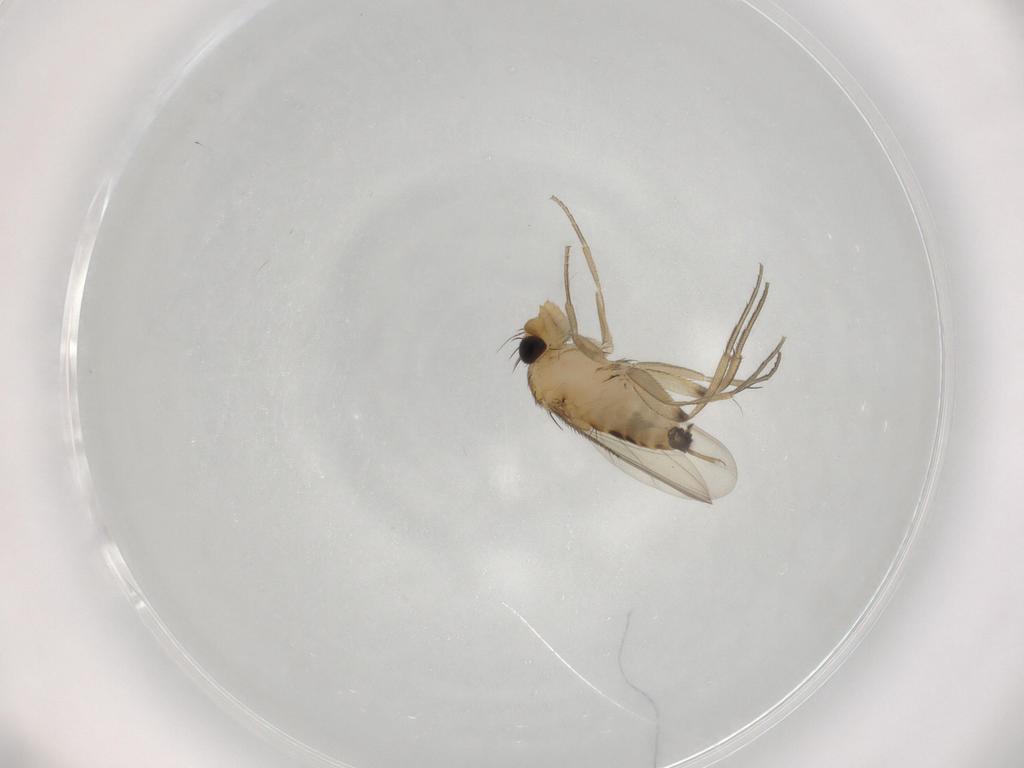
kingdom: Animalia
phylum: Arthropoda
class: Insecta
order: Diptera
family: Phoridae
